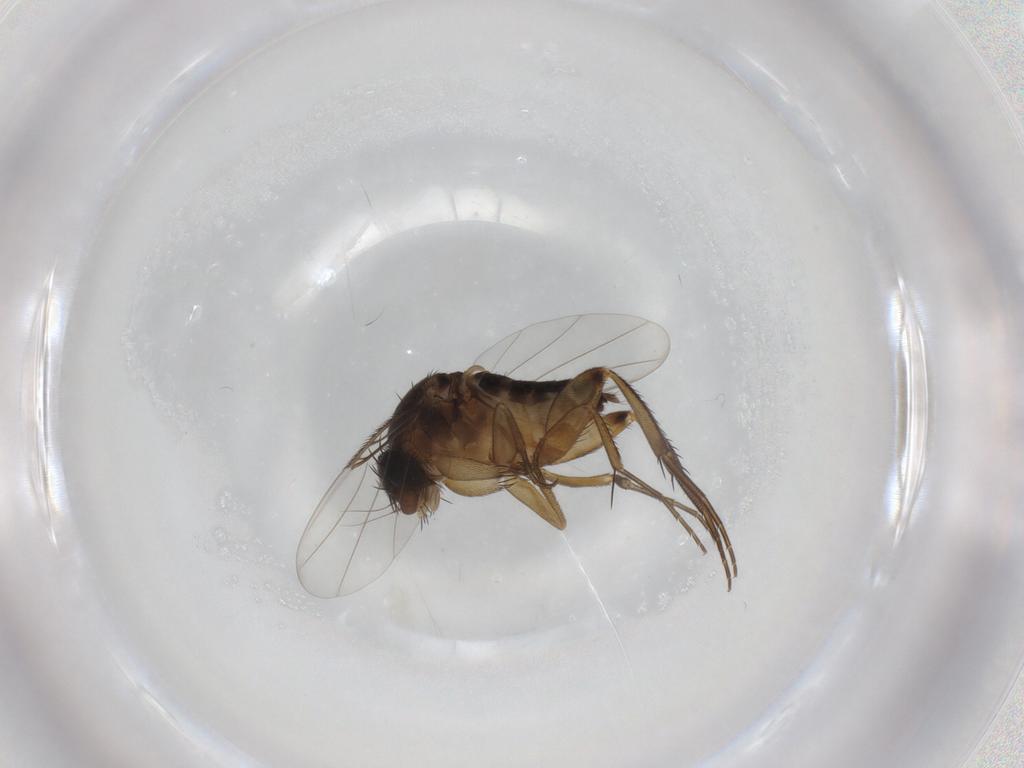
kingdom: Animalia
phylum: Arthropoda
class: Insecta
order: Diptera
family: Phoridae
